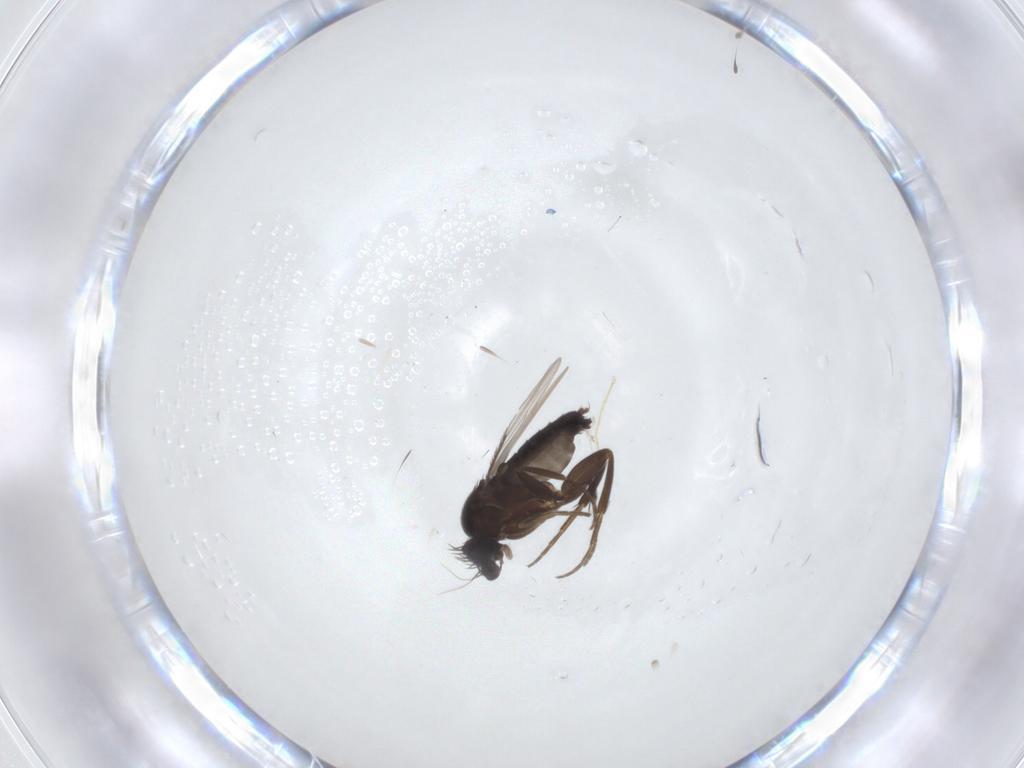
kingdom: Animalia
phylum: Arthropoda
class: Insecta
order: Diptera
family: Phoridae
